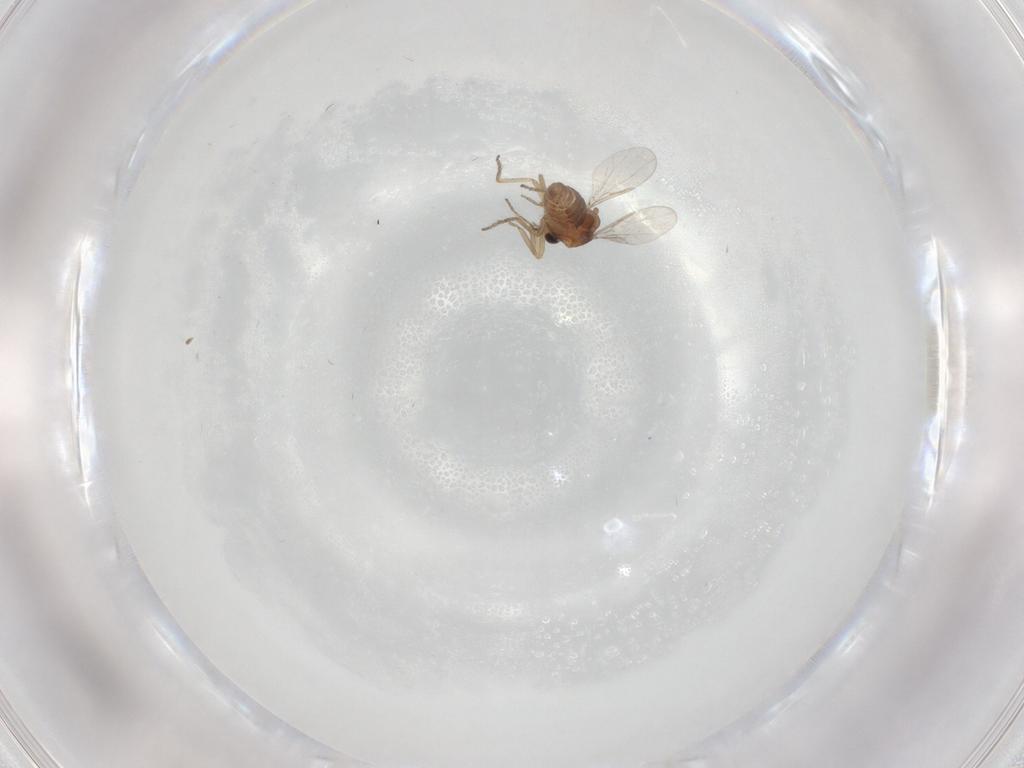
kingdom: Animalia
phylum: Arthropoda
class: Insecta
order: Diptera
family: Ceratopogonidae
